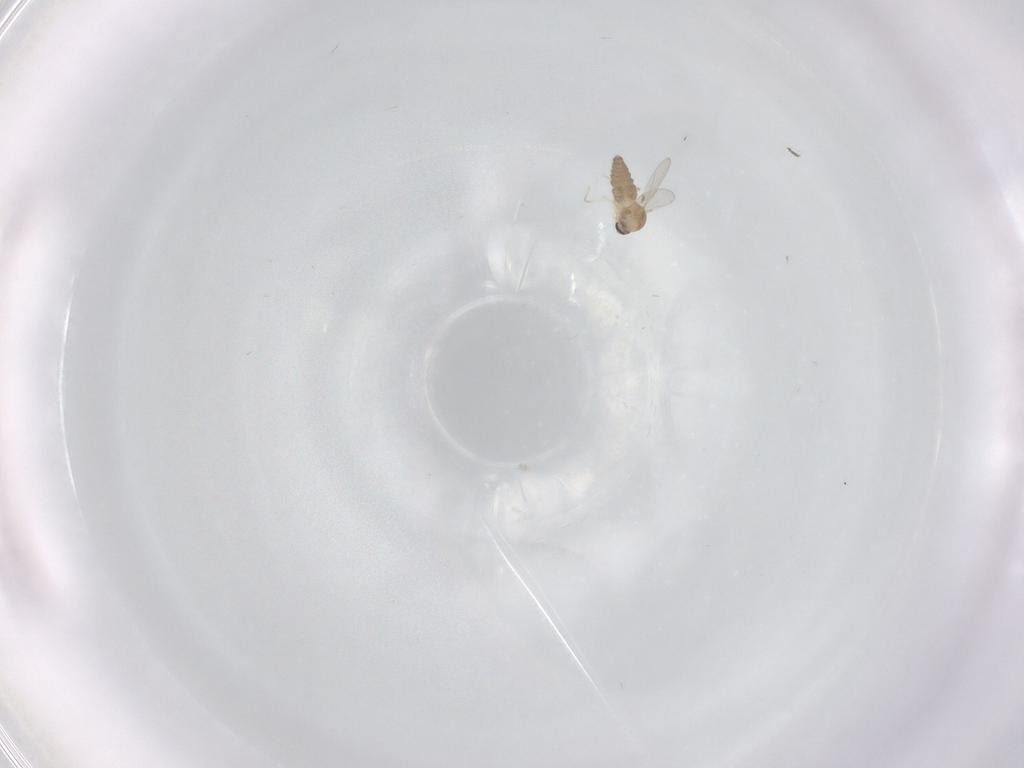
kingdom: Animalia
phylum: Arthropoda
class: Insecta
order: Diptera
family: Ceratopogonidae
